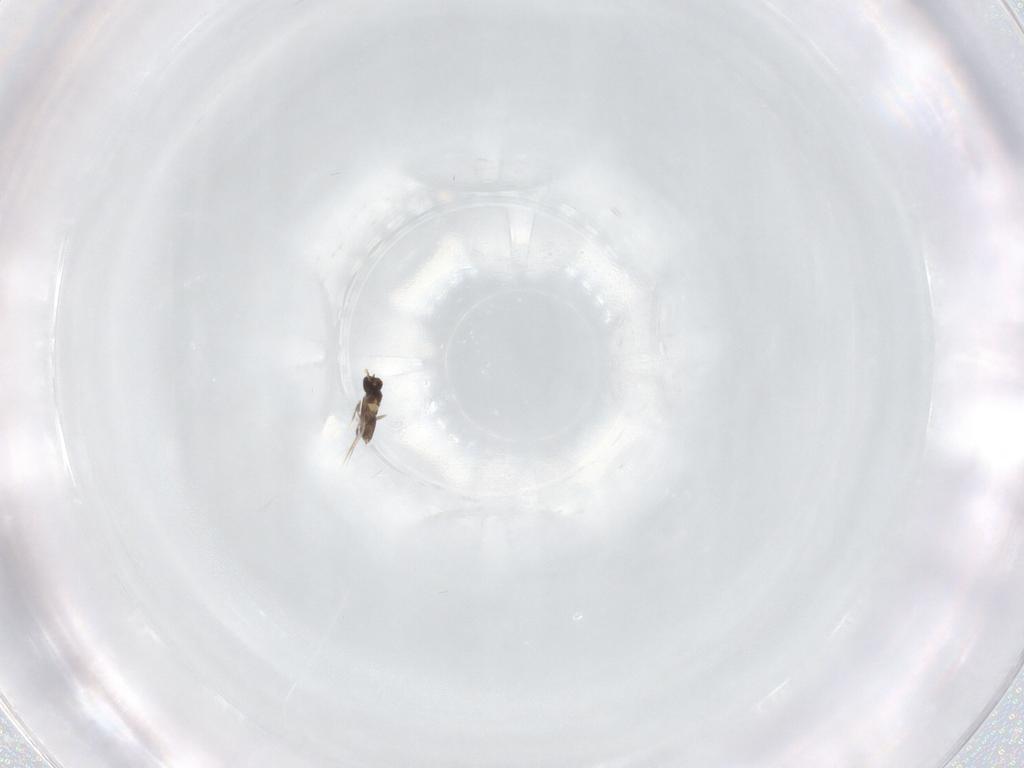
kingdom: Animalia
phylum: Arthropoda
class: Insecta
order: Hymenoptera
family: Mymaridae
